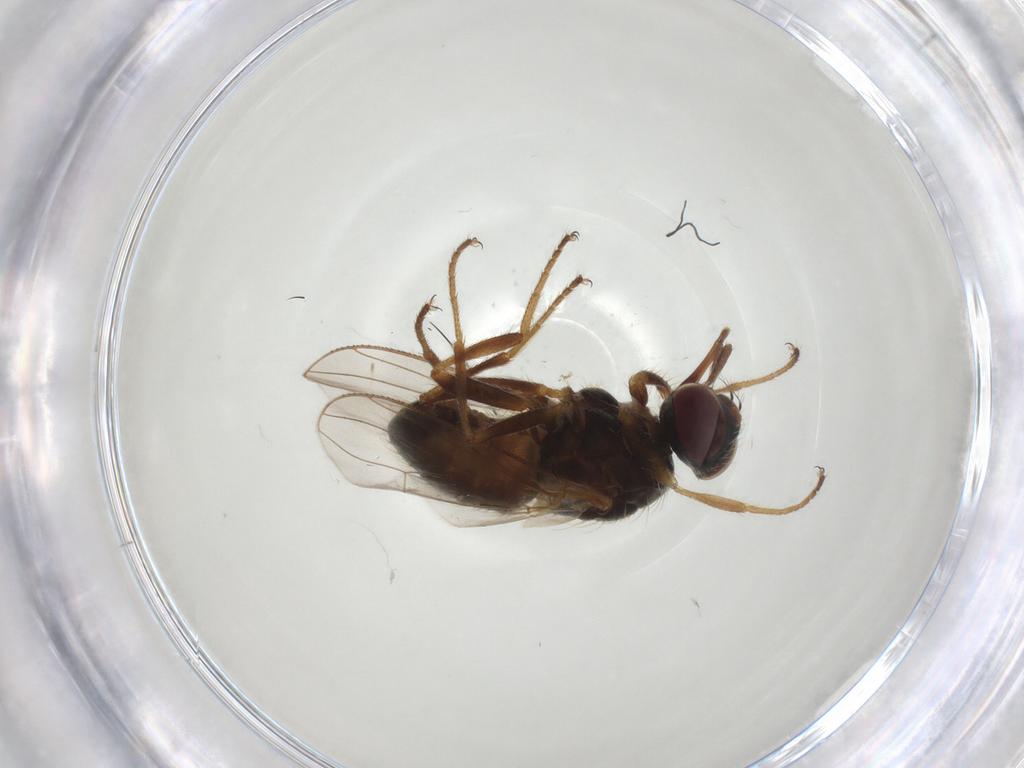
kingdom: Animalia
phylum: Arthropoda
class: Insecta
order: Diptera
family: Sarcophagidae
